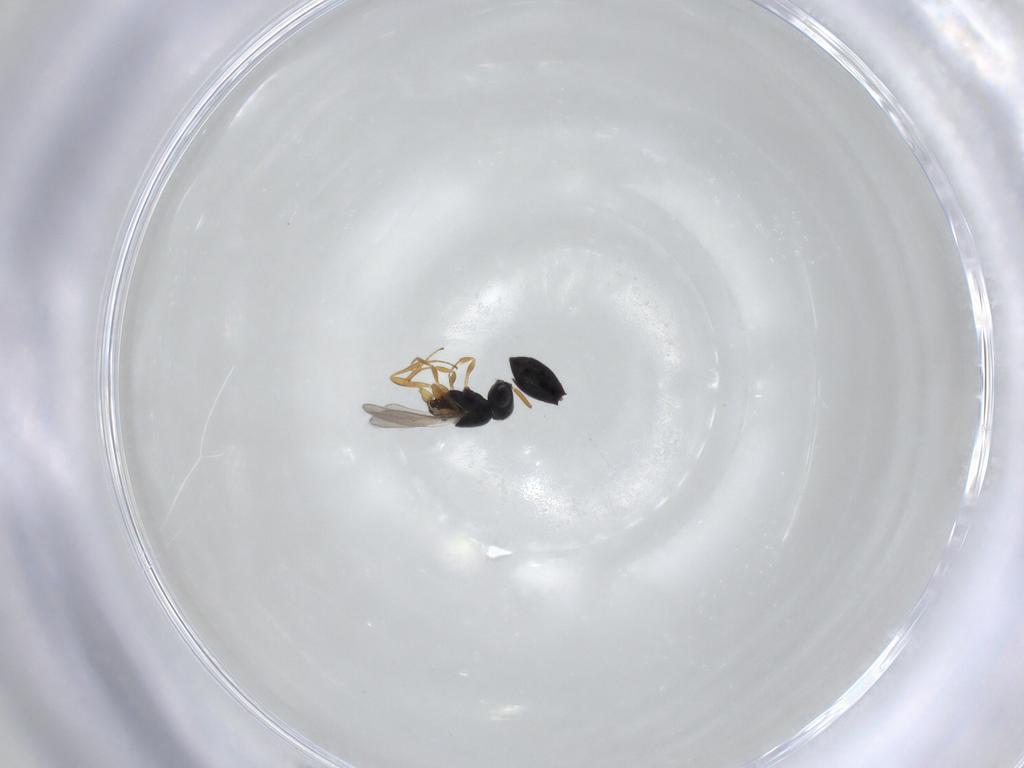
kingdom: Animalia
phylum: Arthropoda
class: Insecta
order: Hymenoptera
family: Scelionidae
